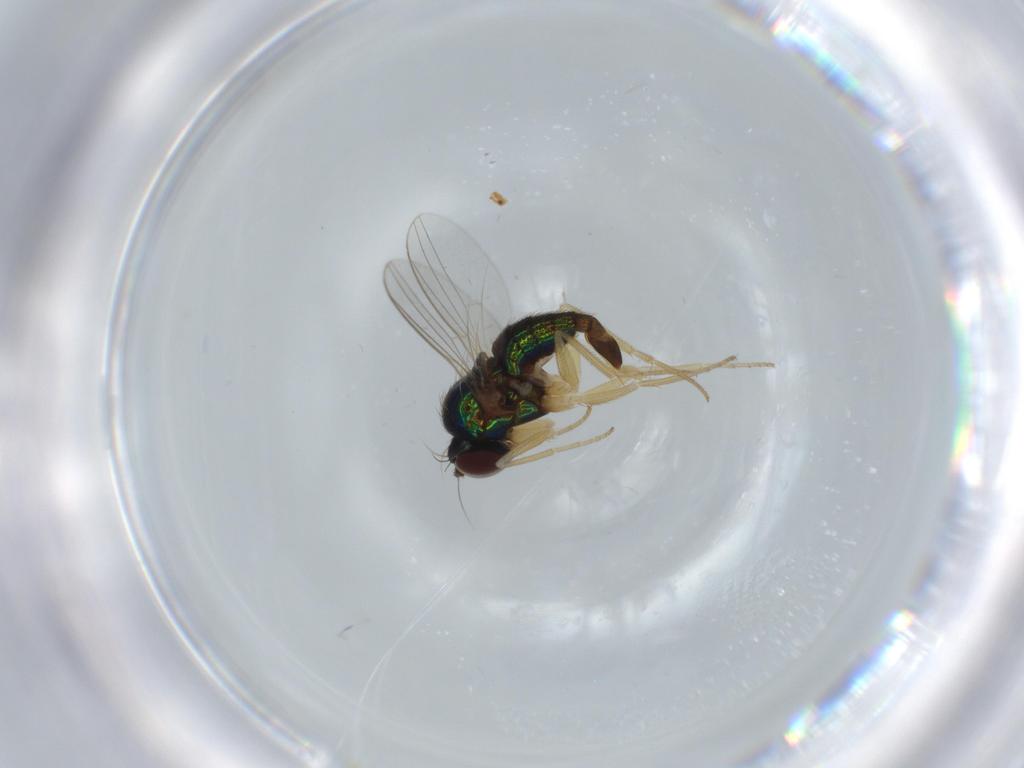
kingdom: Animalia
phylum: Arthropoda
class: Insecta
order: Diptera
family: Dolichopodidae
